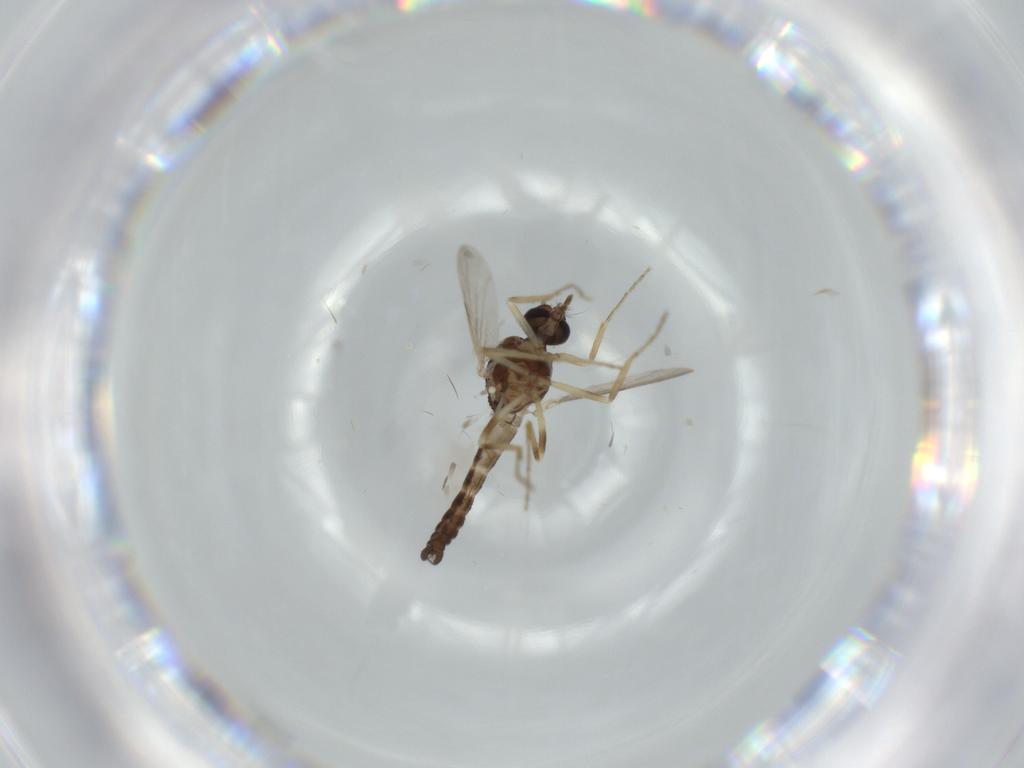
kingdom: Animalia
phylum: Arthropoda
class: Insecta
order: Diptera
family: Ceratopogonidae
